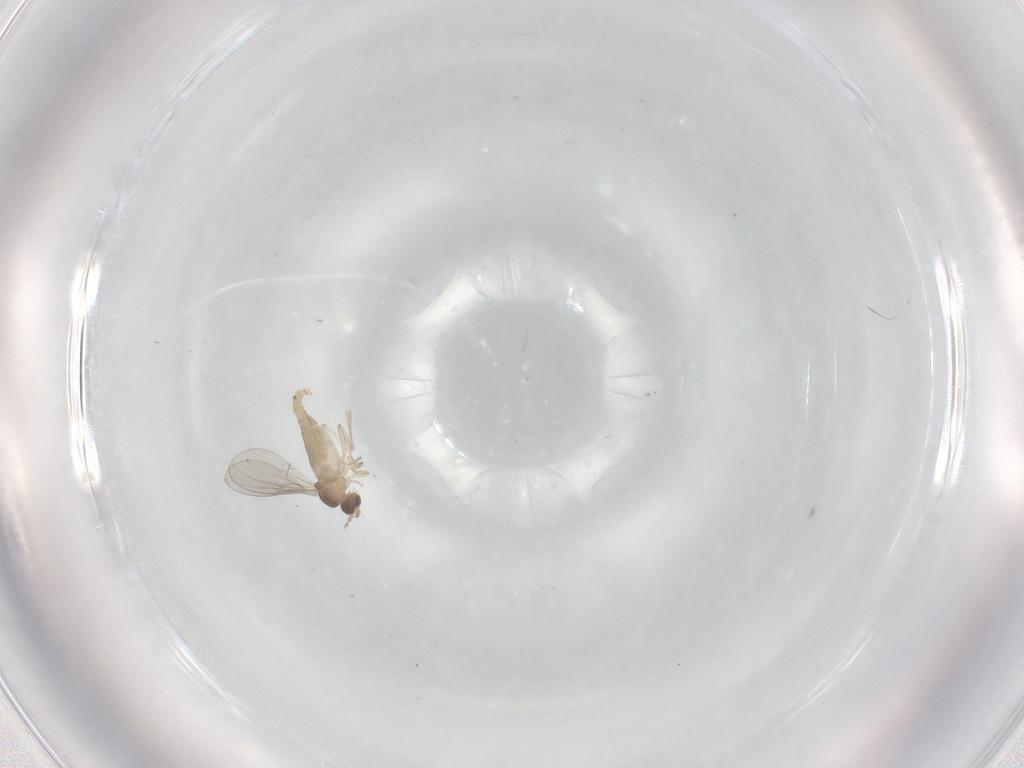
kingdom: Animalia
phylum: Arthropoda
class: Insecta
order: Diptera
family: Cecidomyiidae
